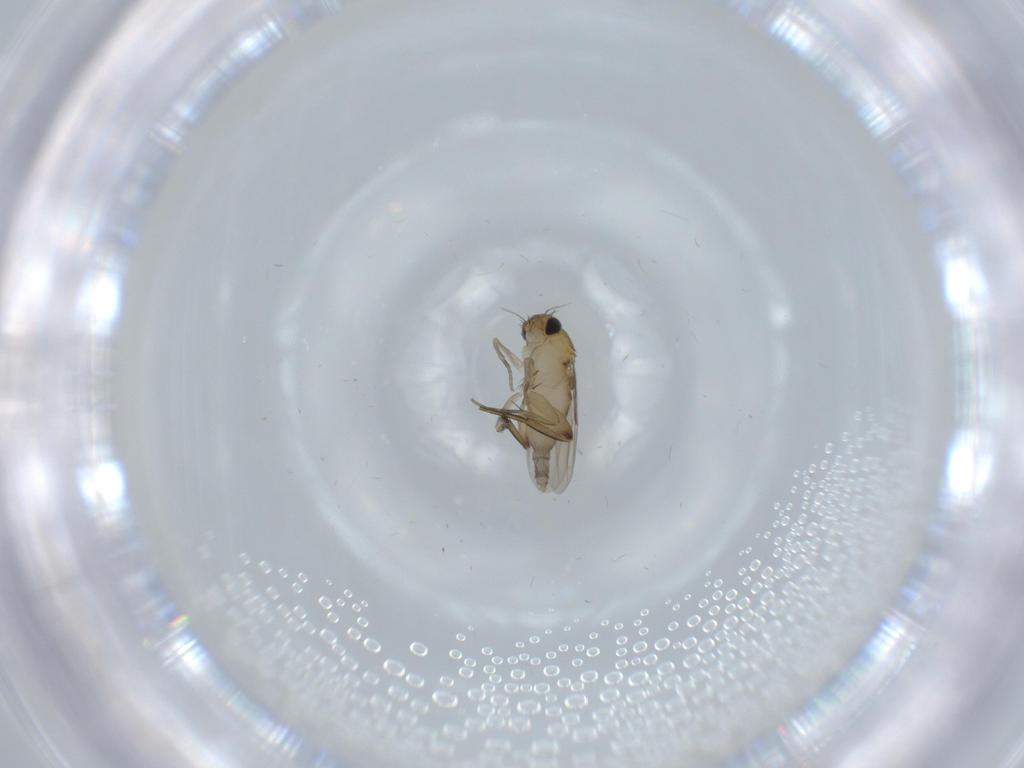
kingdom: Animalia
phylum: Arthropoda
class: Insecta
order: Diptera
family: Phoridae
